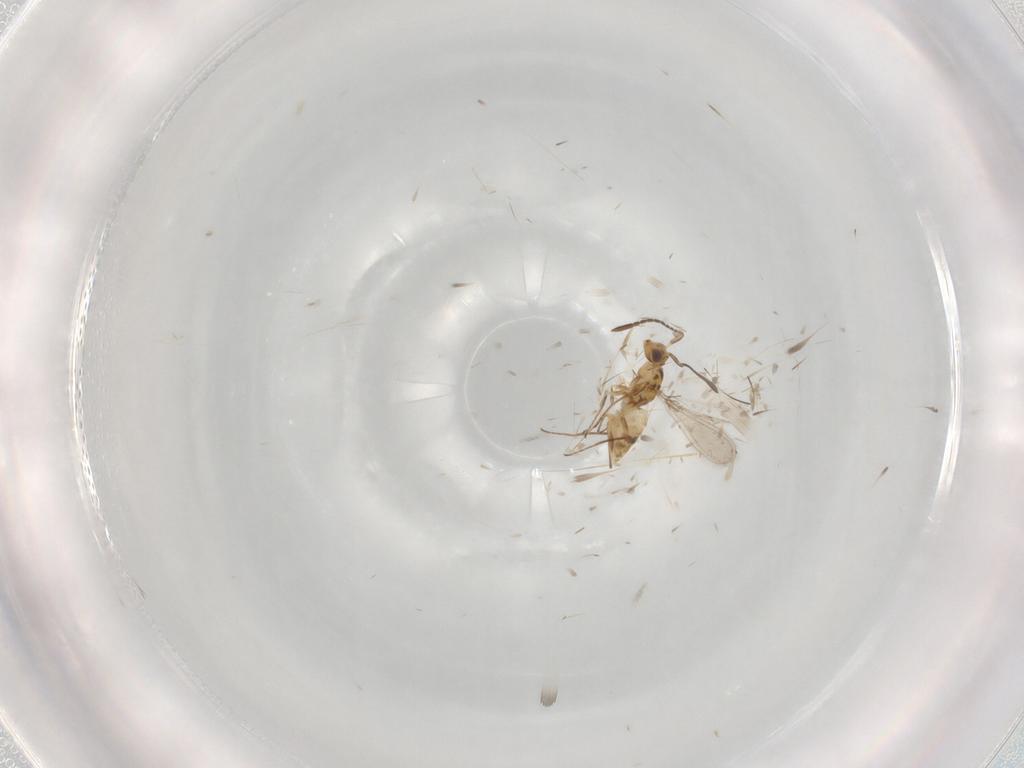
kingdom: Animalia
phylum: Arthropoda
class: Insecta
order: Hymenoptera
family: Mymaridae
